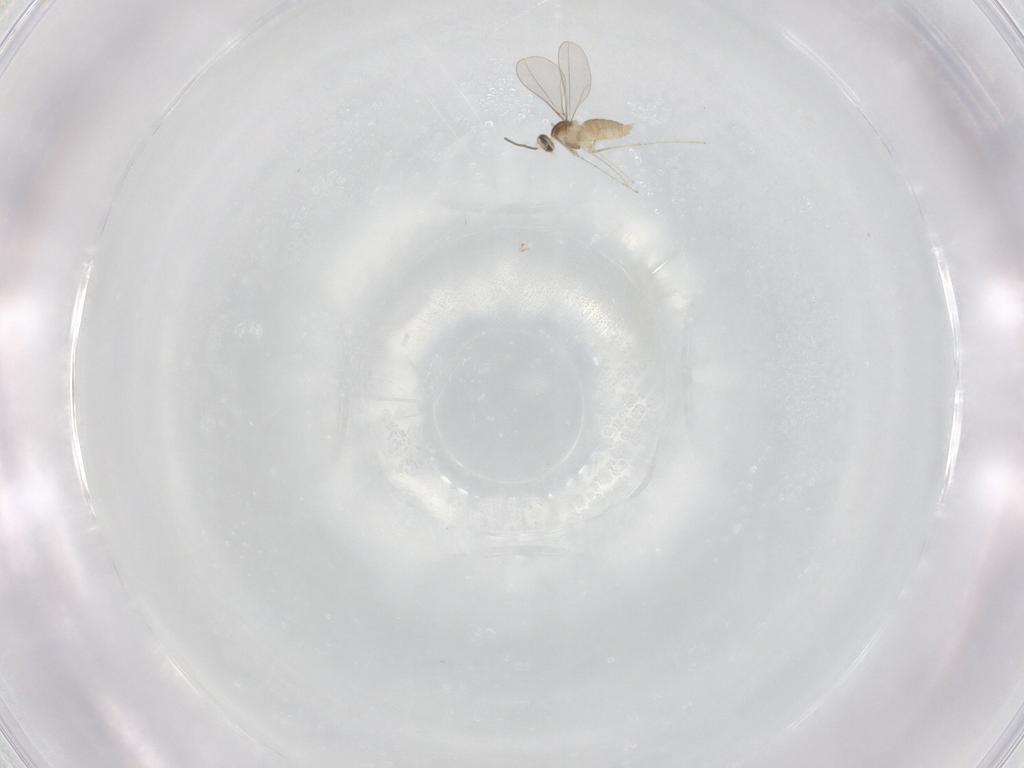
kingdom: Animalia
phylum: Arthropoda
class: Insecta
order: Diptera
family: Cecidomyiidae
